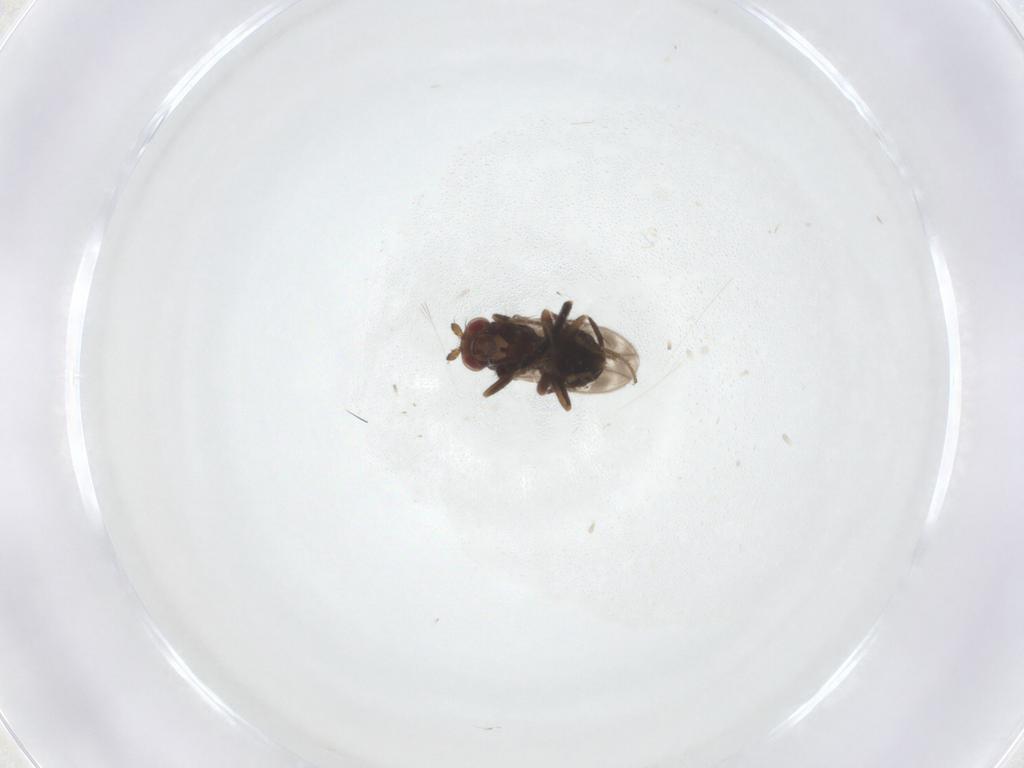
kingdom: Animalia
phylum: Arthropoda
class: Insecta
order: Diptera
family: Sphaeroceridae
